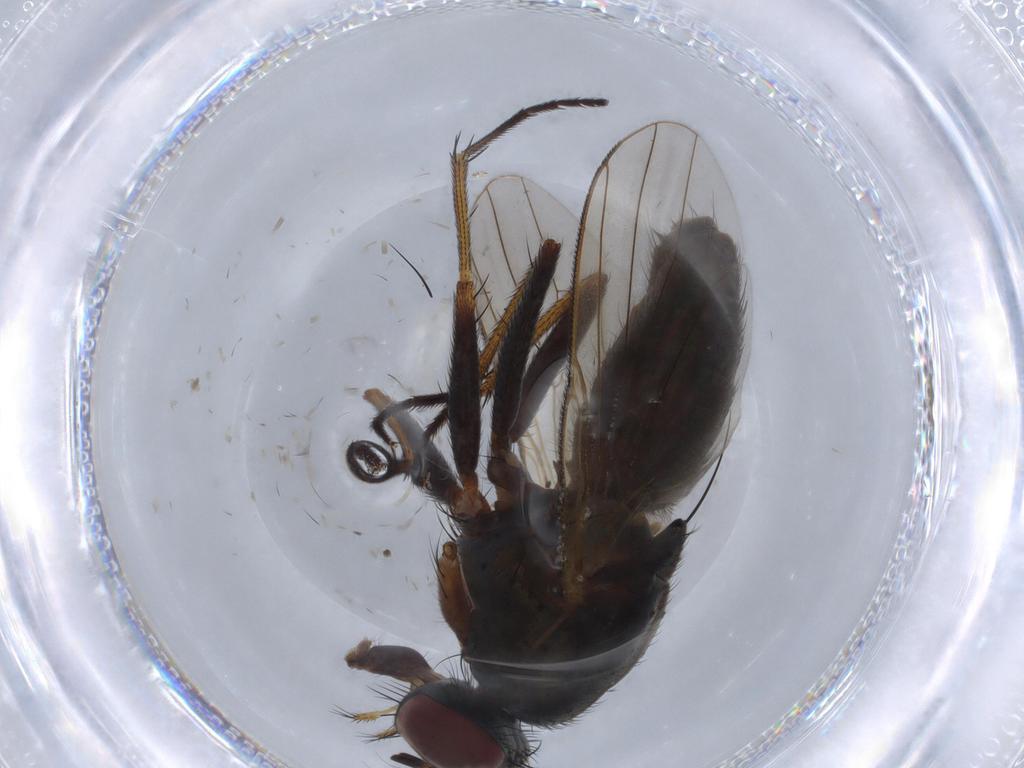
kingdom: Animalia
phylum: Arthropoda
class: Insecta
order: Diptera
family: Muscidae
